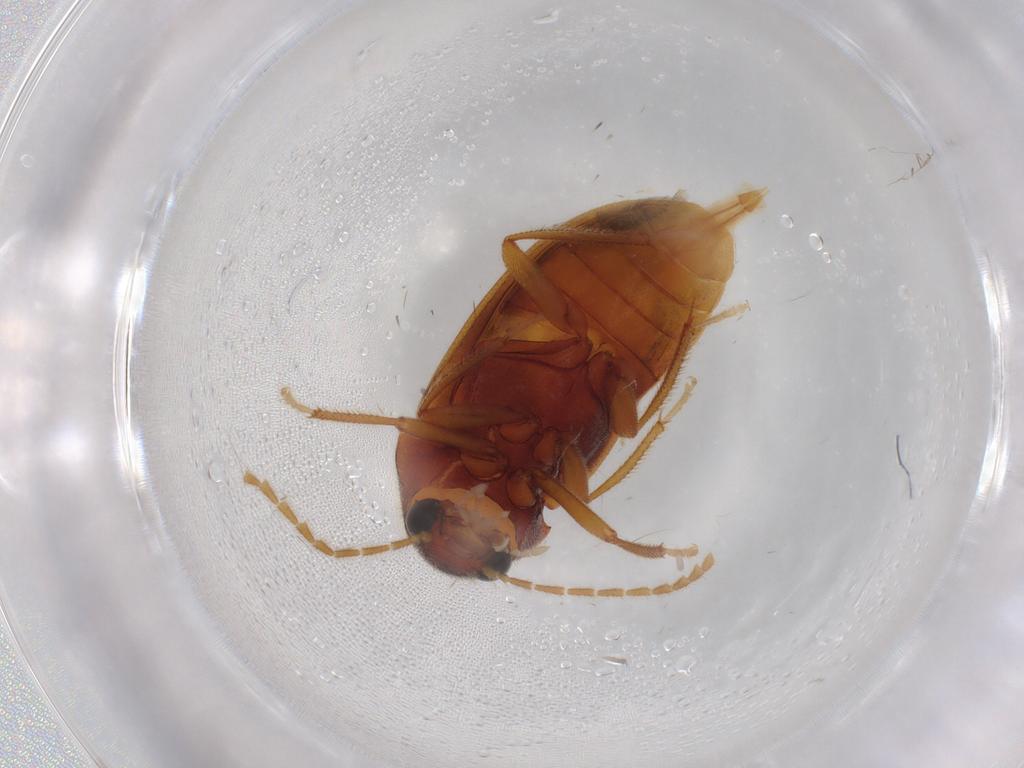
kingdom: Animalia
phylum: Arthropoda
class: Insecta
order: Coleoptera
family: Ptilodactylidae
